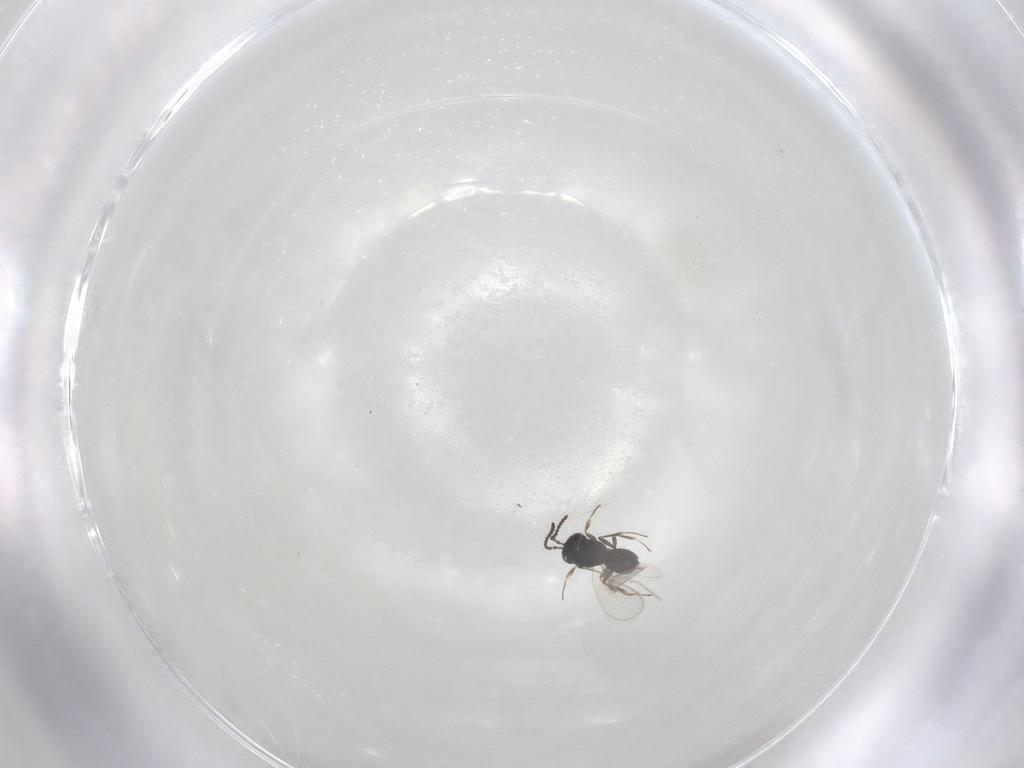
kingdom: Animalia
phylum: Arthropoda
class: Insecta
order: Hymenoptera
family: Scelionidae
